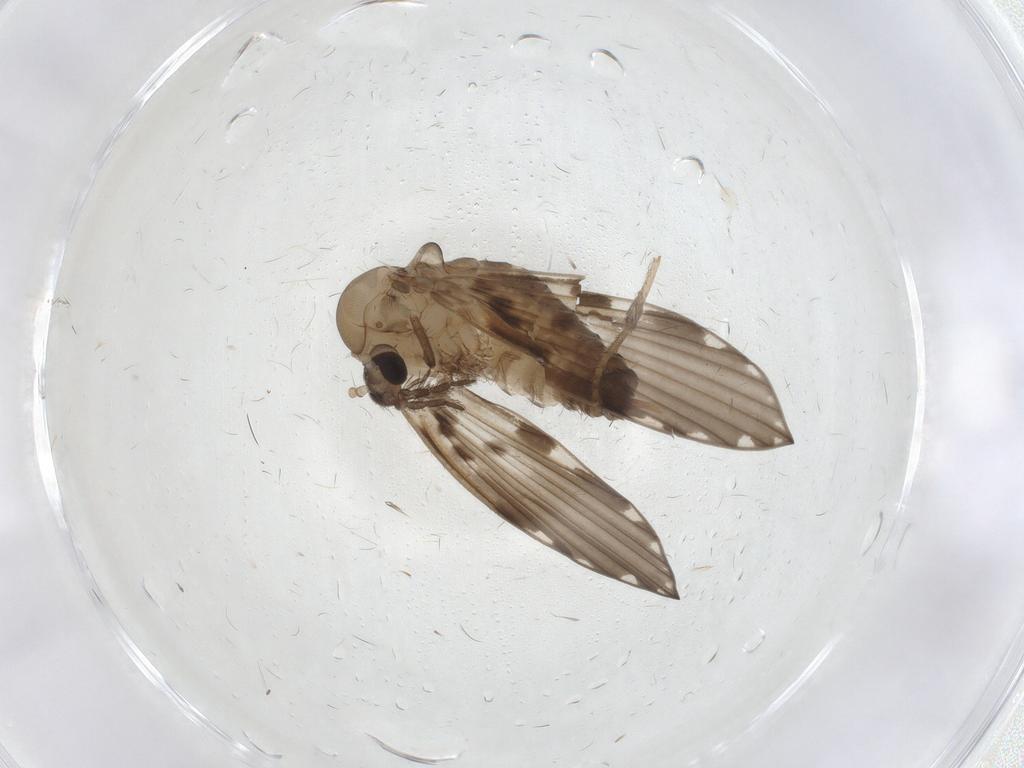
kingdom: Animalia
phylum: Arthropoda
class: Insecta
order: Diptera
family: Psychodidae
